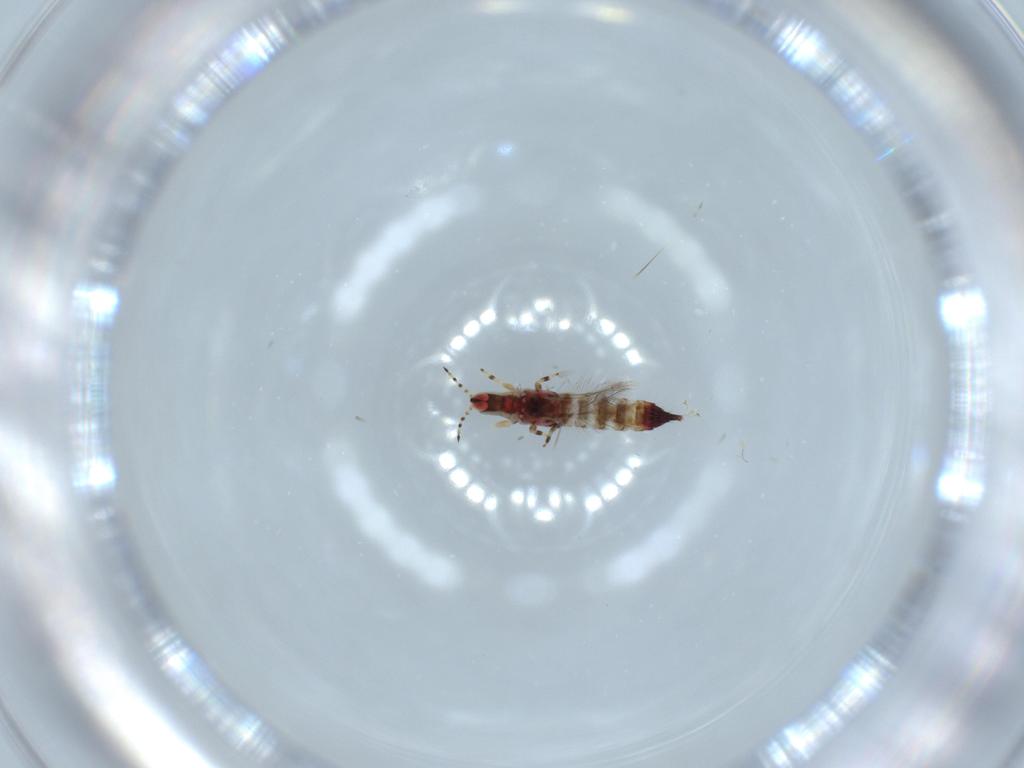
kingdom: Animalia
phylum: Arthropoda
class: Insecta
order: Thysanoptera
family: Phlaeothripidae
